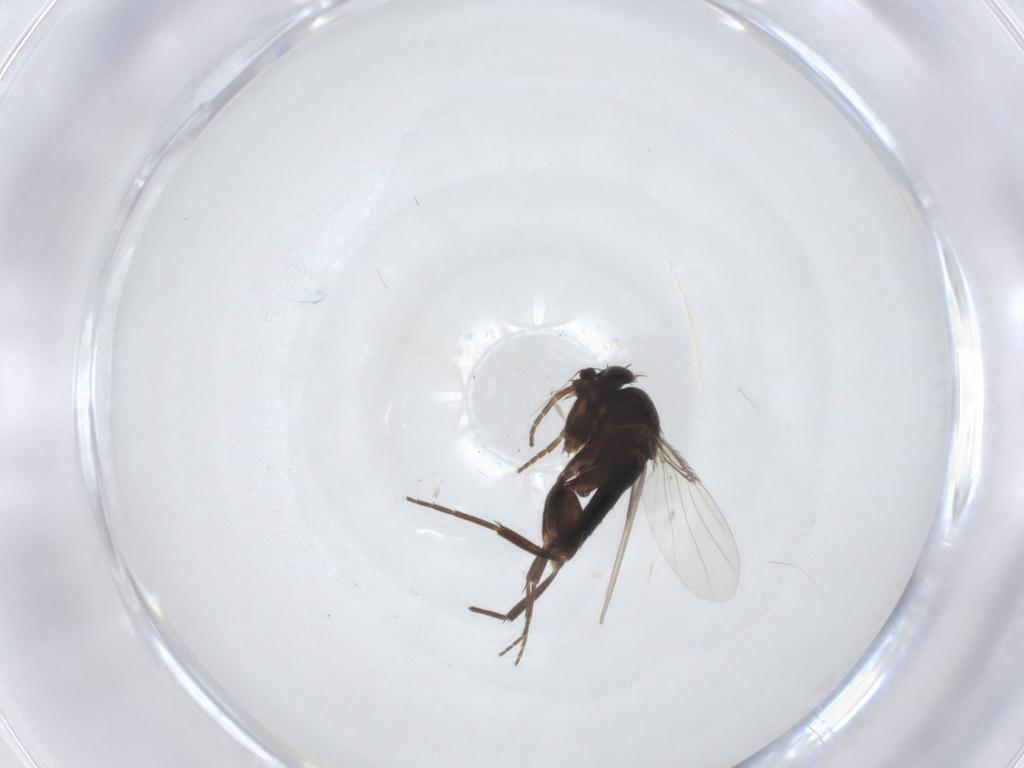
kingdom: Animalia
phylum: Arthropoda
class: Insecta
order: Diptera
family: Phoridae
